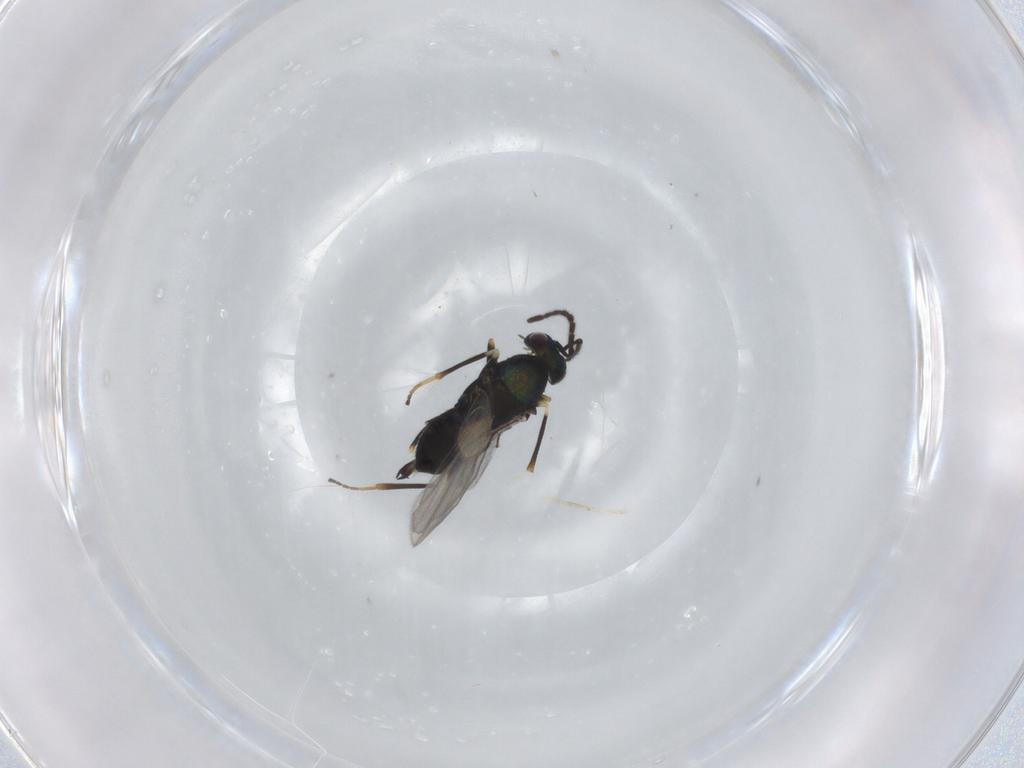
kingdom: Animalia
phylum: Arthropoda
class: Insecta
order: Hymenoptera
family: Encyrtidae
